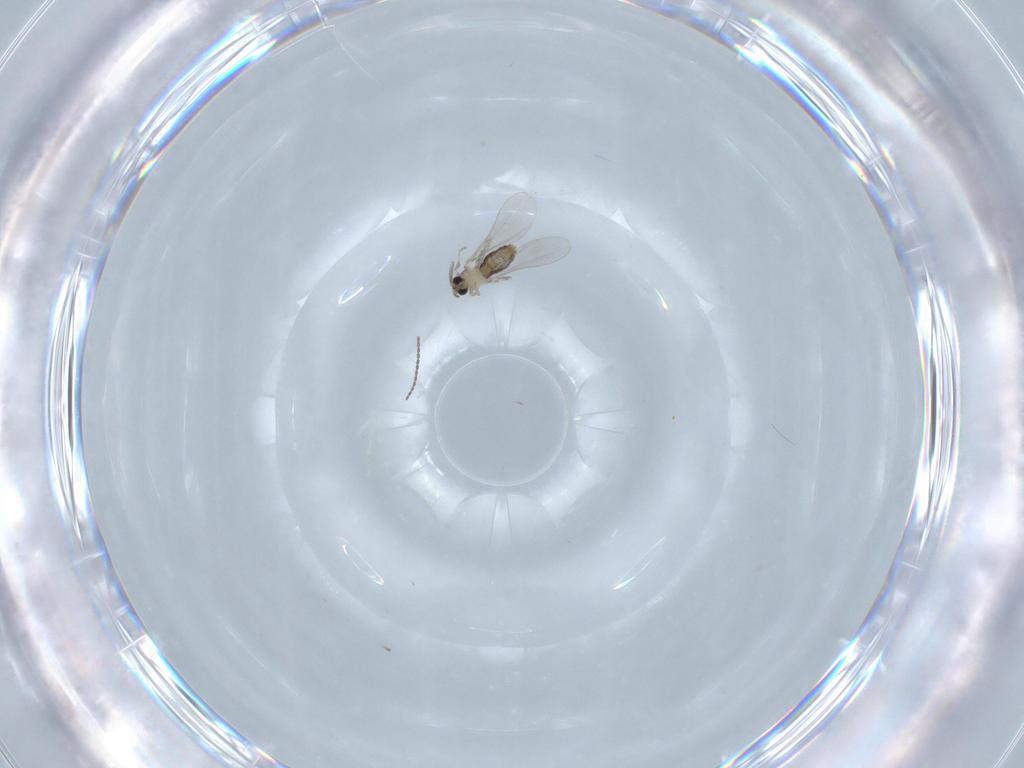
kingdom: Animalia
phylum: Arthropoda
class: Insecta
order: Diptera
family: Cecidomyiidae
